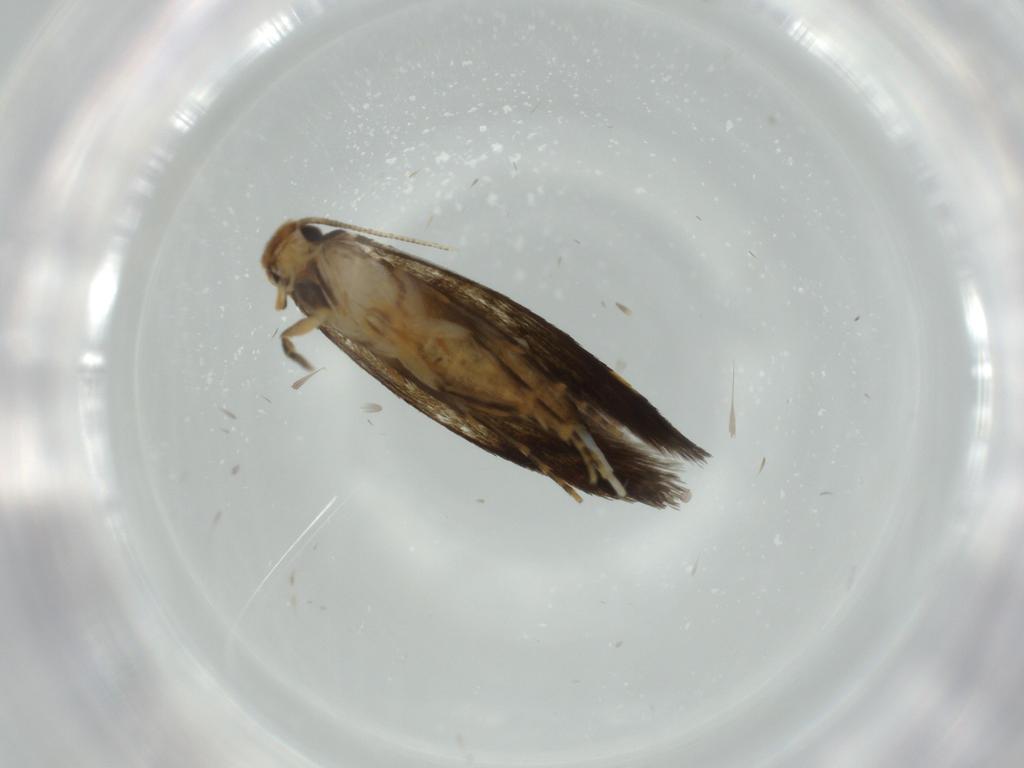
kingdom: Animalia
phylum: Arthropoda
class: Insecta
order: Lepidoptera
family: Tineidae
